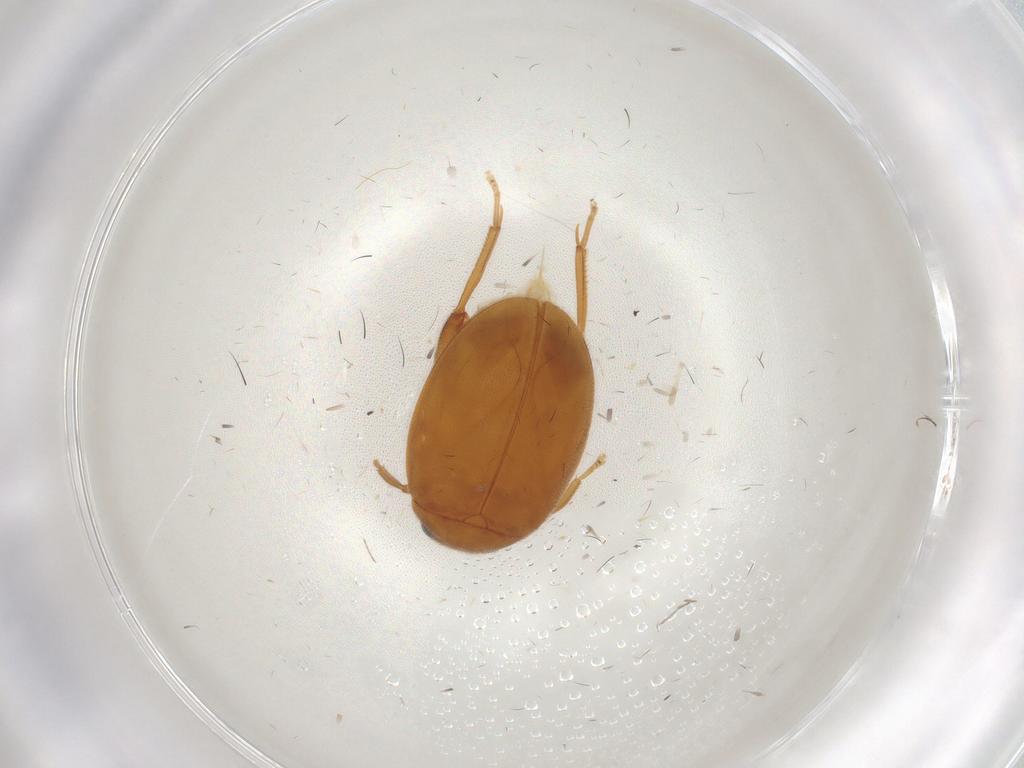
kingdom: Animalia
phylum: Arthropoda
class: Insecta
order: Coleoptera
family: Scirtidae
